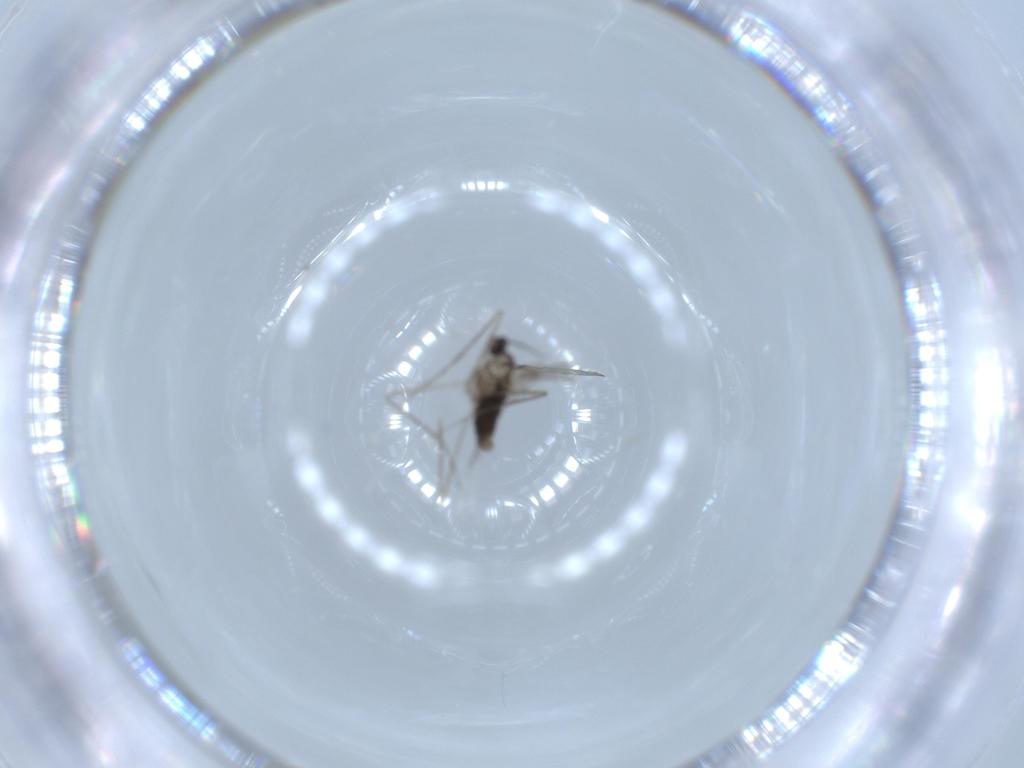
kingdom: Animalia
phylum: Arthropoda
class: Insecta
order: Diptera
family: Cecidomyiidae
